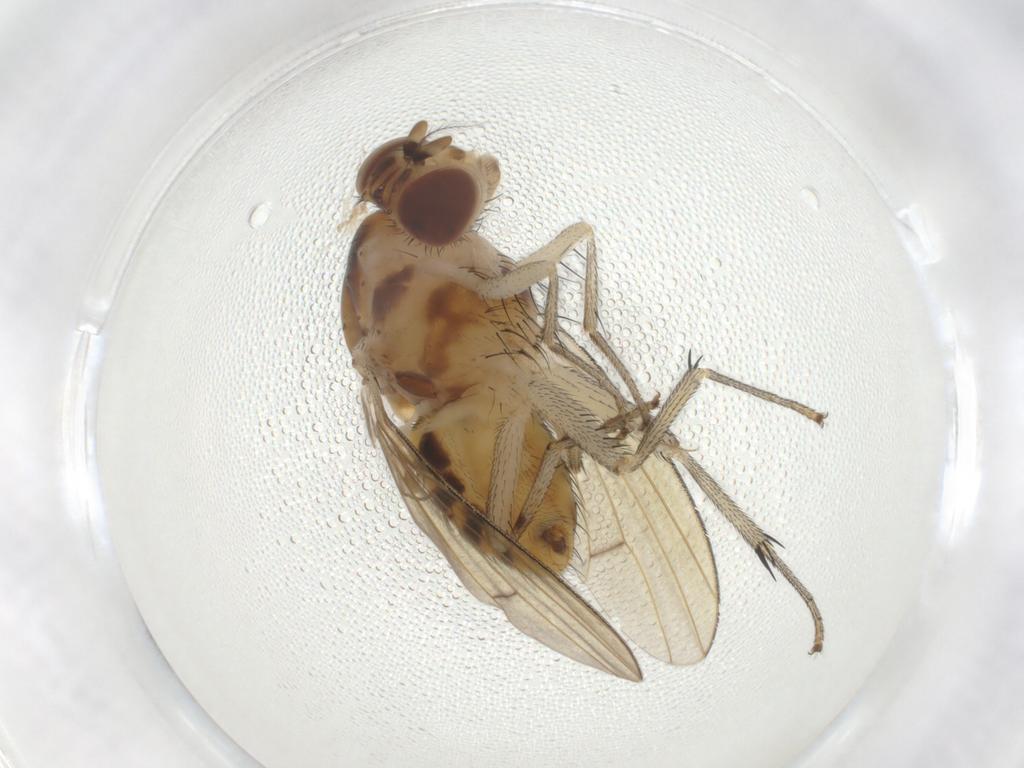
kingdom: Animalia
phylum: Arthropoda
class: Insecta
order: Diptera
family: Sciaridae
